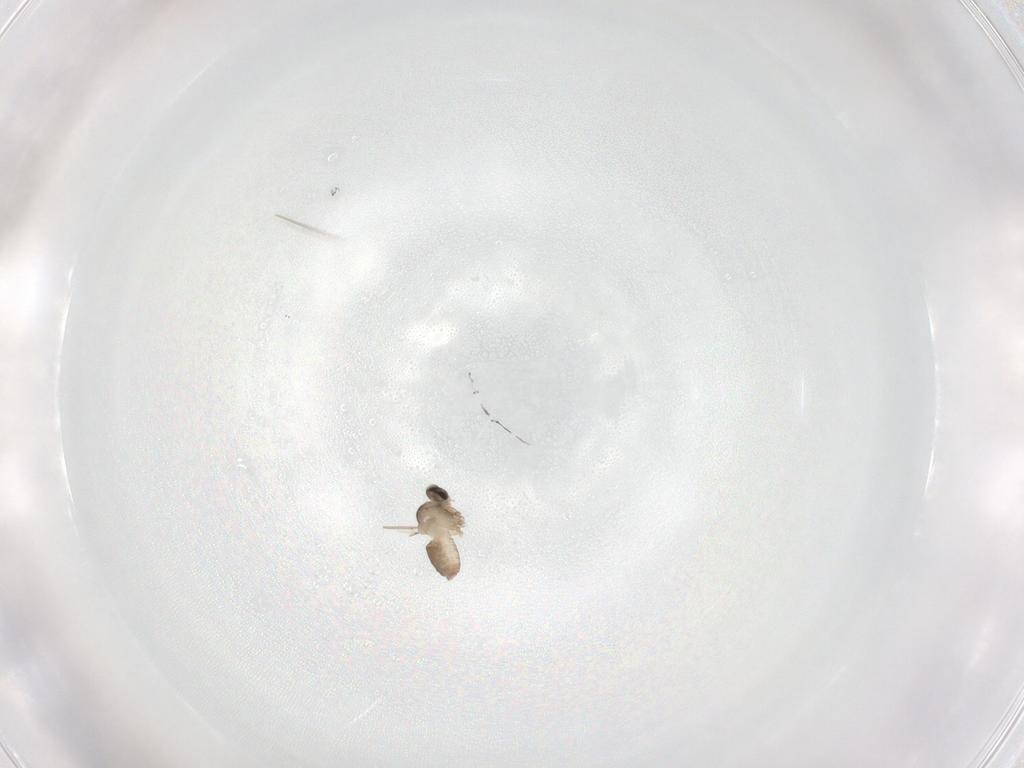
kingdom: Animalia
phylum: Arthropoda
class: Insecta
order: Diptera
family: Cecidomyiidae
